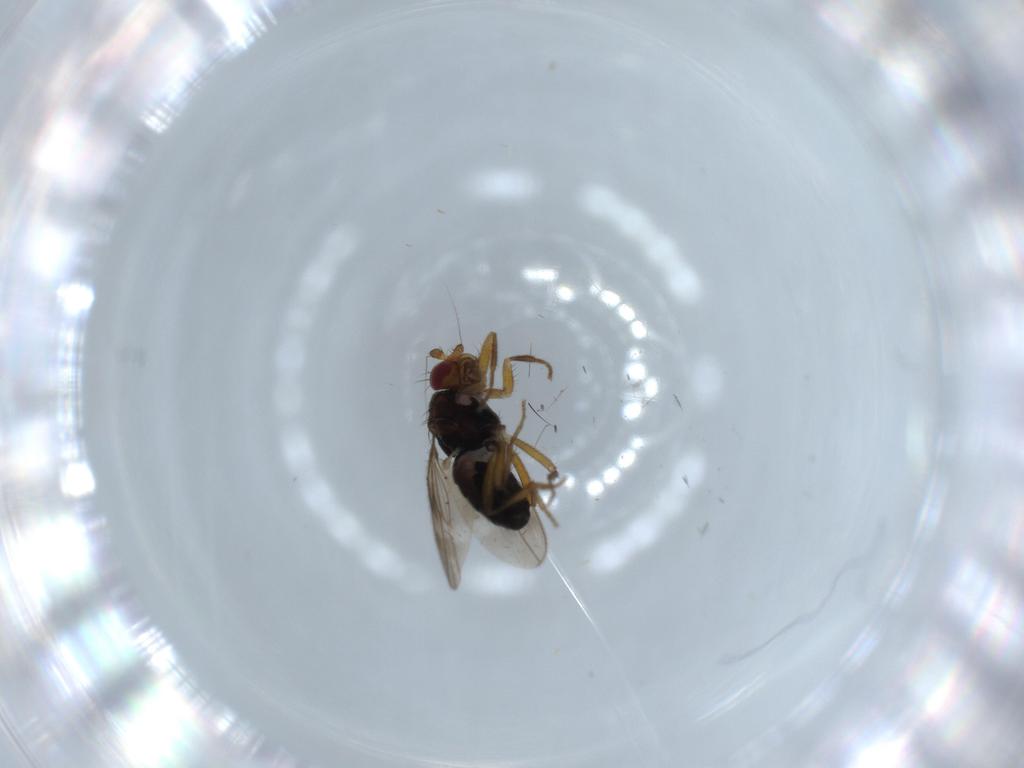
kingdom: Animalia
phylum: Arthropoda
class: Insecta
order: Diptera
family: Sphaeroceridae
